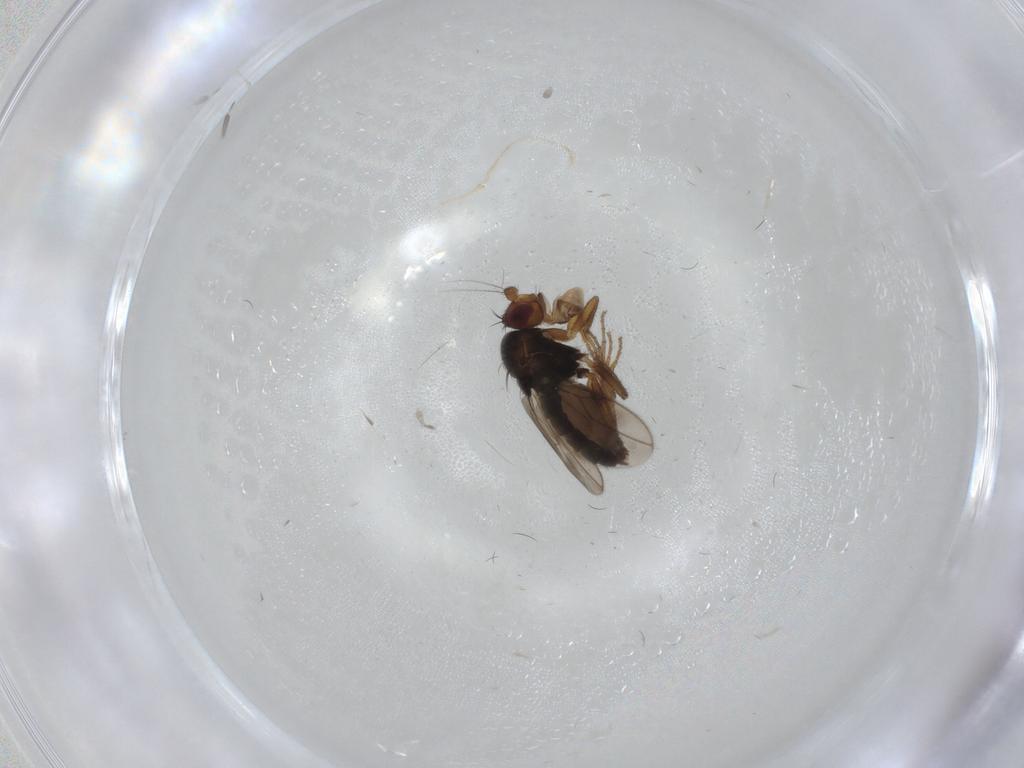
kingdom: Animalia
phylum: Arthropoda
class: Insecta
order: Diptera
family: Sphaeroceridae
